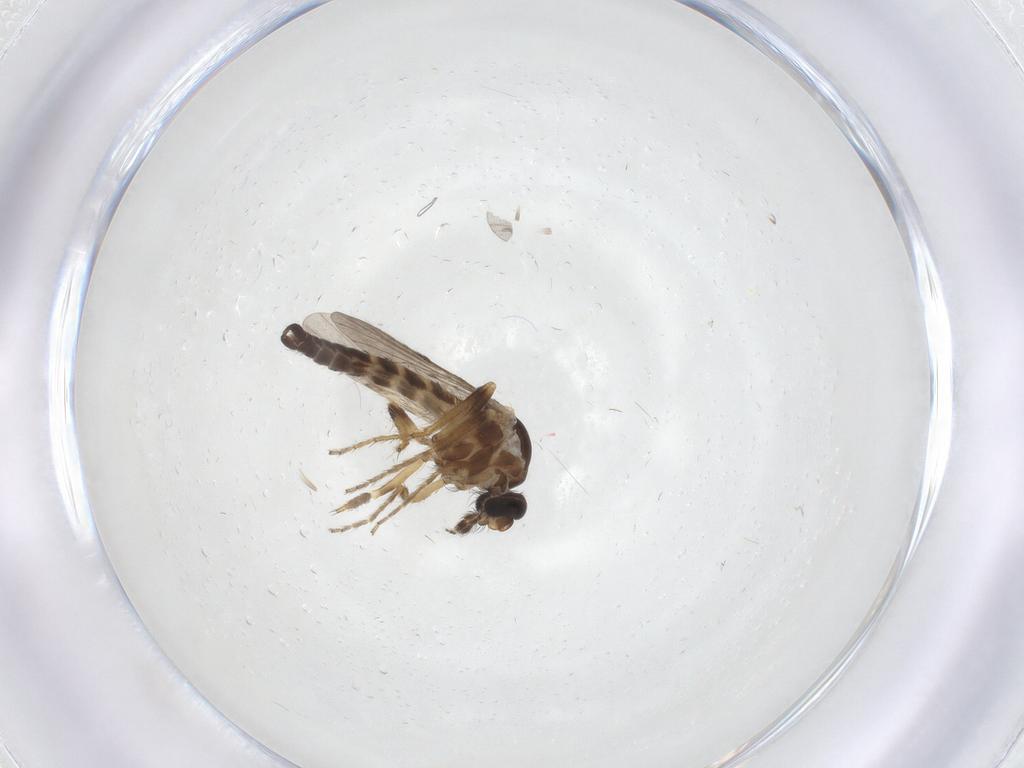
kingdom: Animalia
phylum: Arthropoda
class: Insecta
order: Diptera
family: Ceratopogonidae
